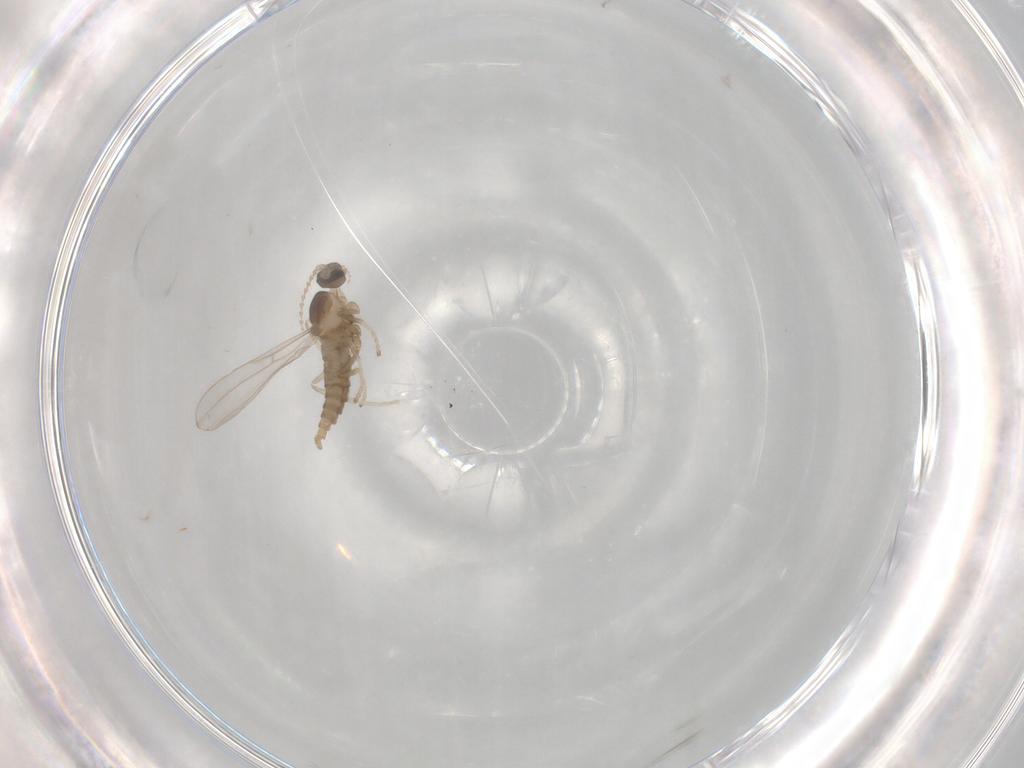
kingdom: Animalia
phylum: Arthropoda
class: Insecta
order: Diptera
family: Cecidomyiidae
